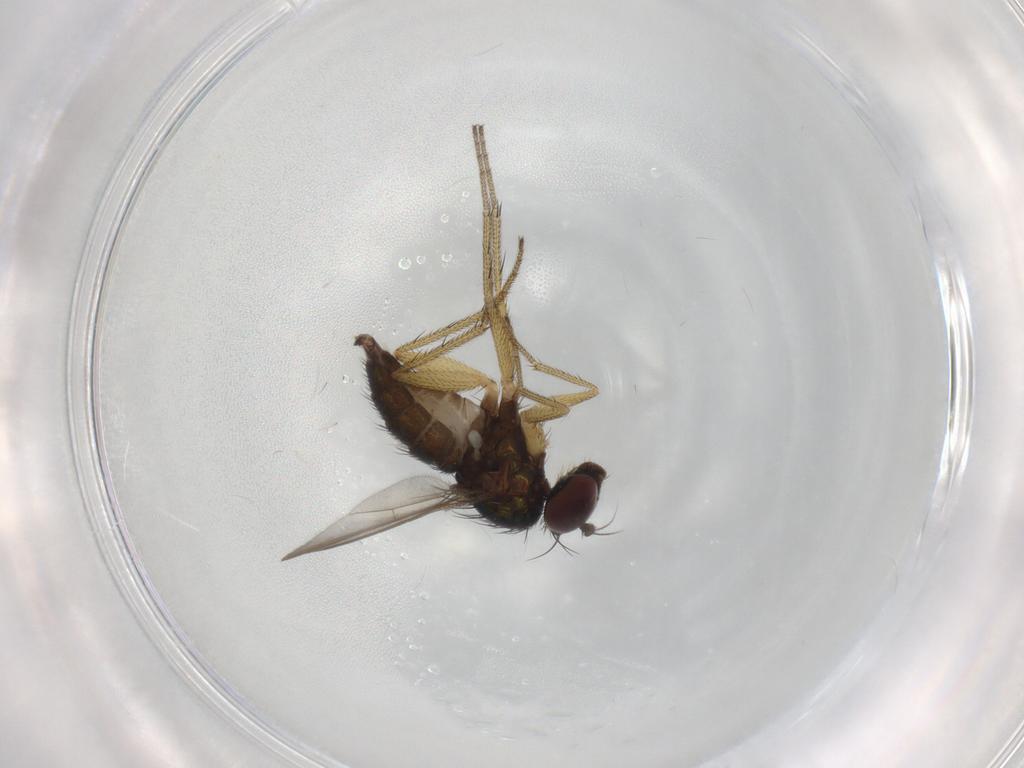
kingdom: Animalia
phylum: Arthropoda
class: Insecta
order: Diptera
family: Dolichopodidae
